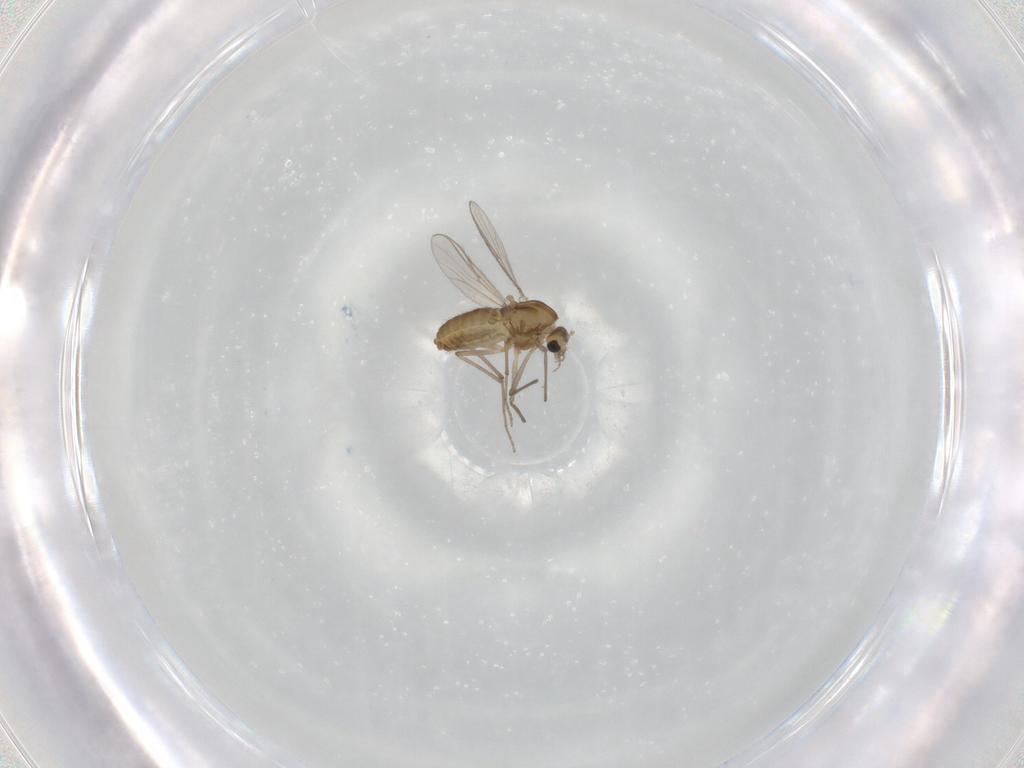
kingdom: Animalia
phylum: Arthropoda
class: Insecta
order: Diptera
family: Chironomidae
